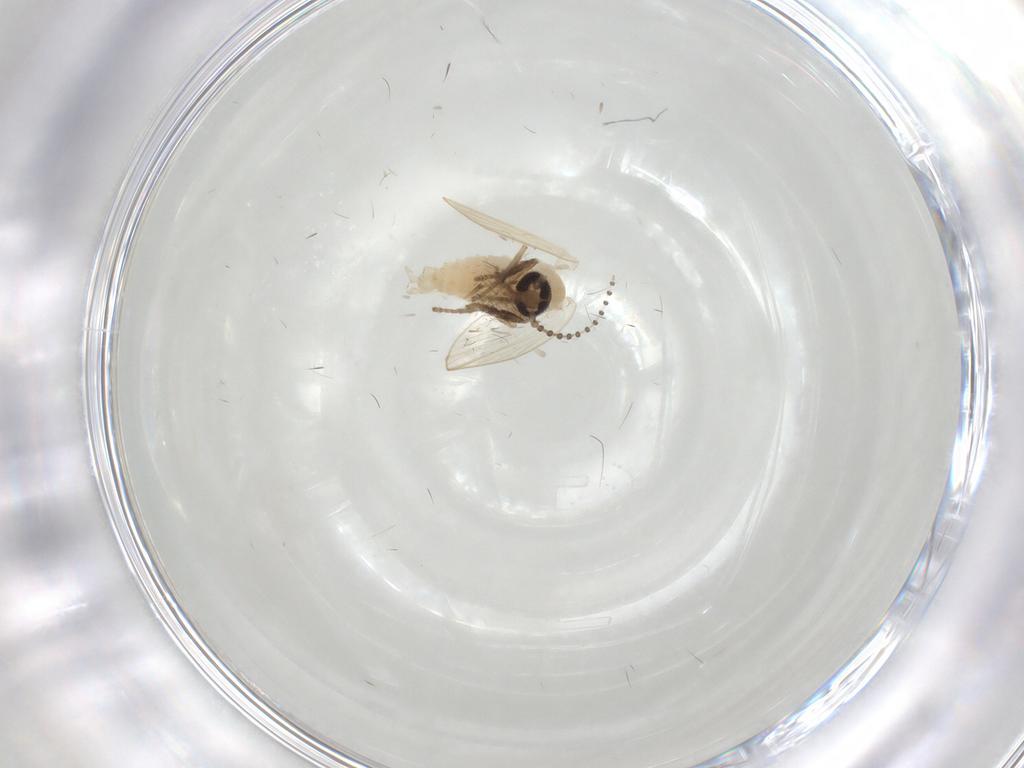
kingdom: Animalia
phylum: Arthropoda
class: Insecta
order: Diptera
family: Psychodidae
